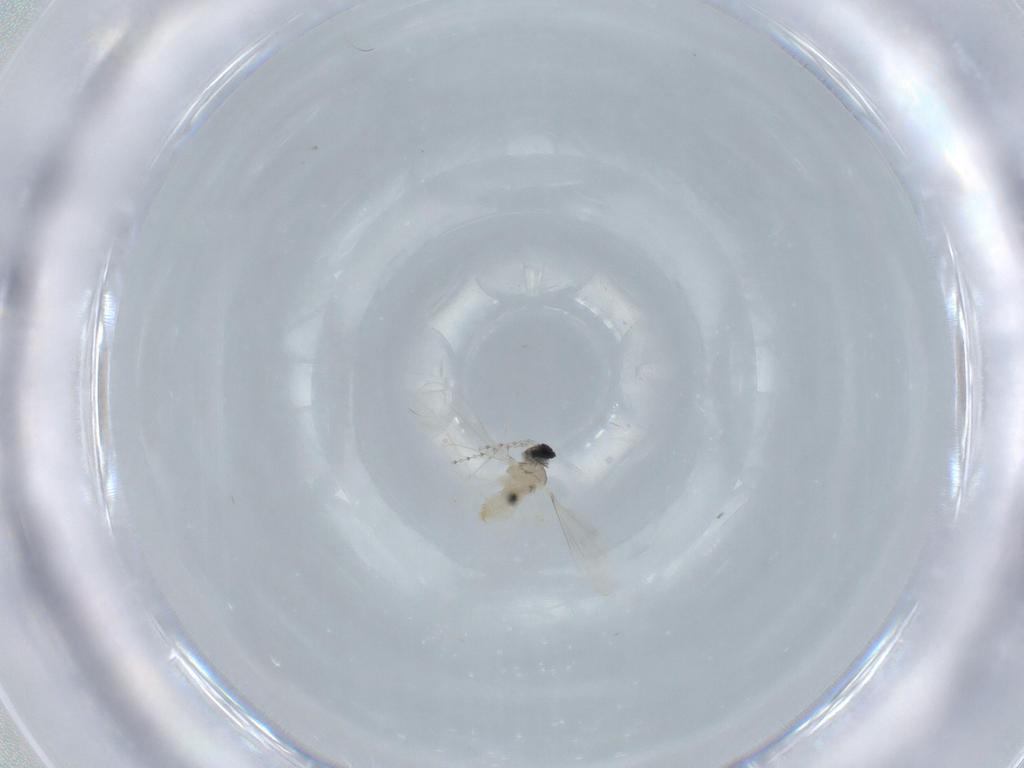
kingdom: Animalia
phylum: Arthropoda
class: Insecta
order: Diptera
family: Cecidomyiidae
